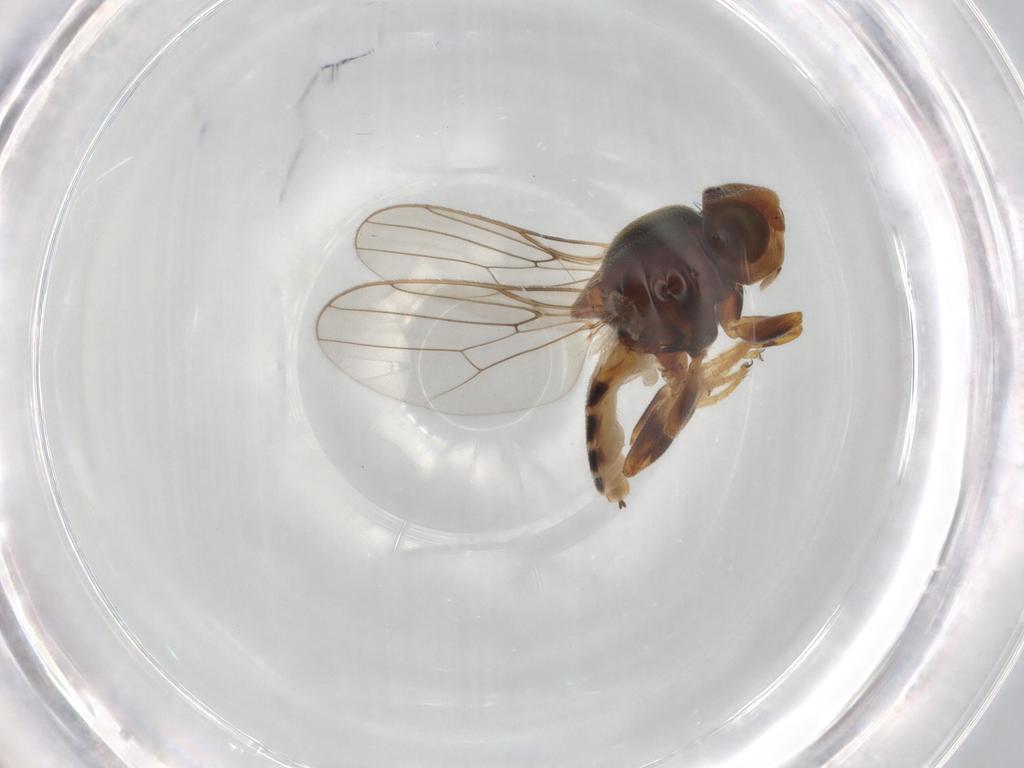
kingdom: Animalia
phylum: Arthropoda
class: Insecta
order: Diptera
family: Chloropidae
